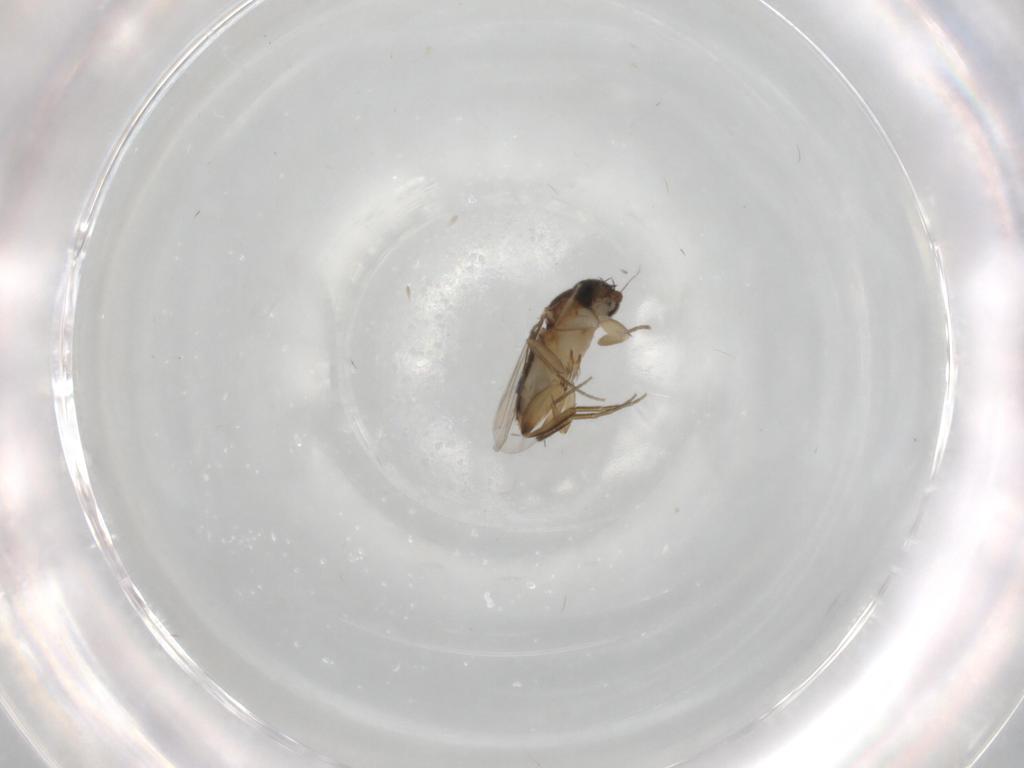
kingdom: Animalia
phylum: Arthropoda
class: Insecta
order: Diptera
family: Phoridae
